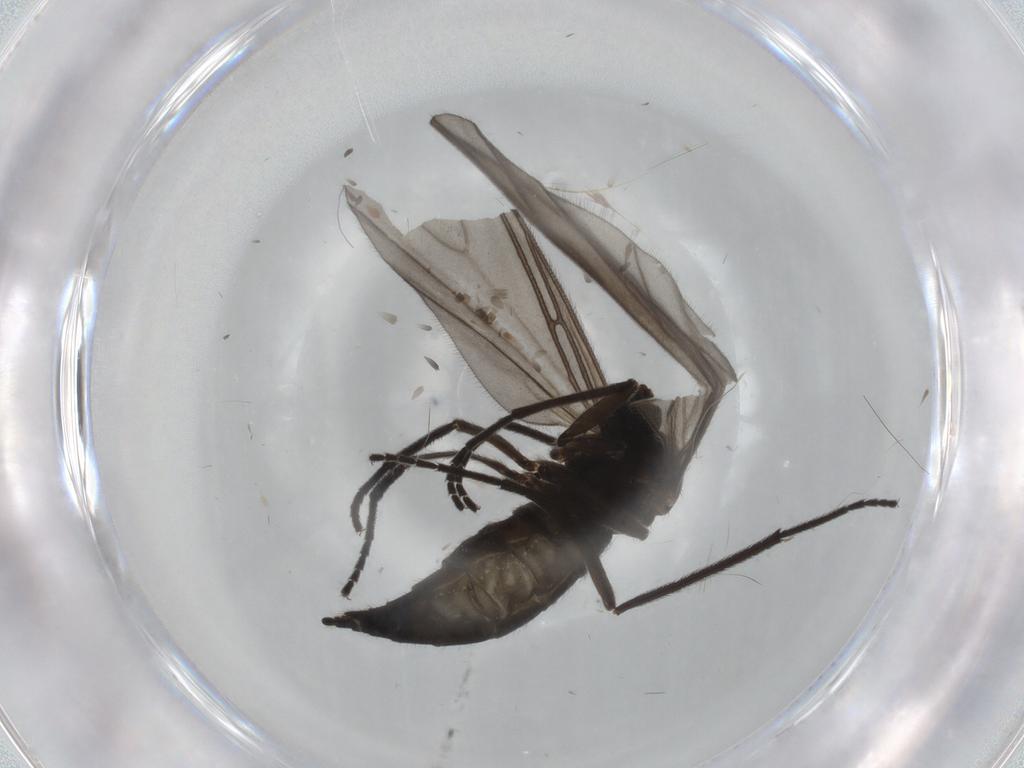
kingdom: Animalia
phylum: Arthropoda
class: Insecta
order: Diptera
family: Sciaridae
